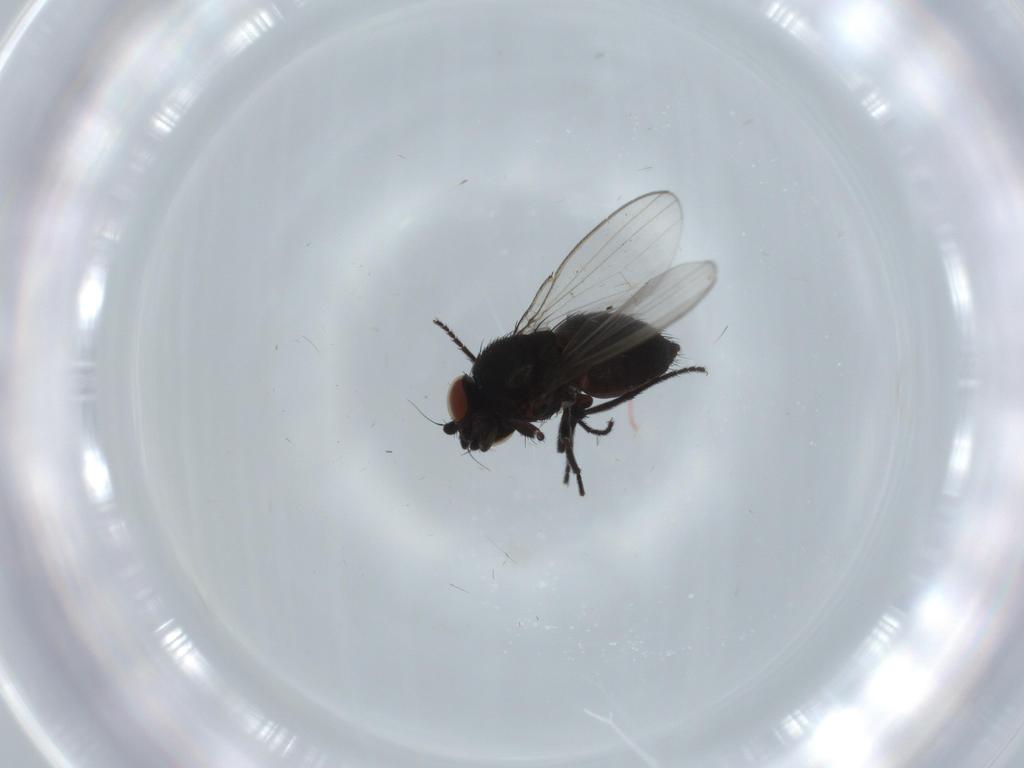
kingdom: Animalia
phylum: Arthropoda
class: Insecta
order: Diptera
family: Milichiidae
